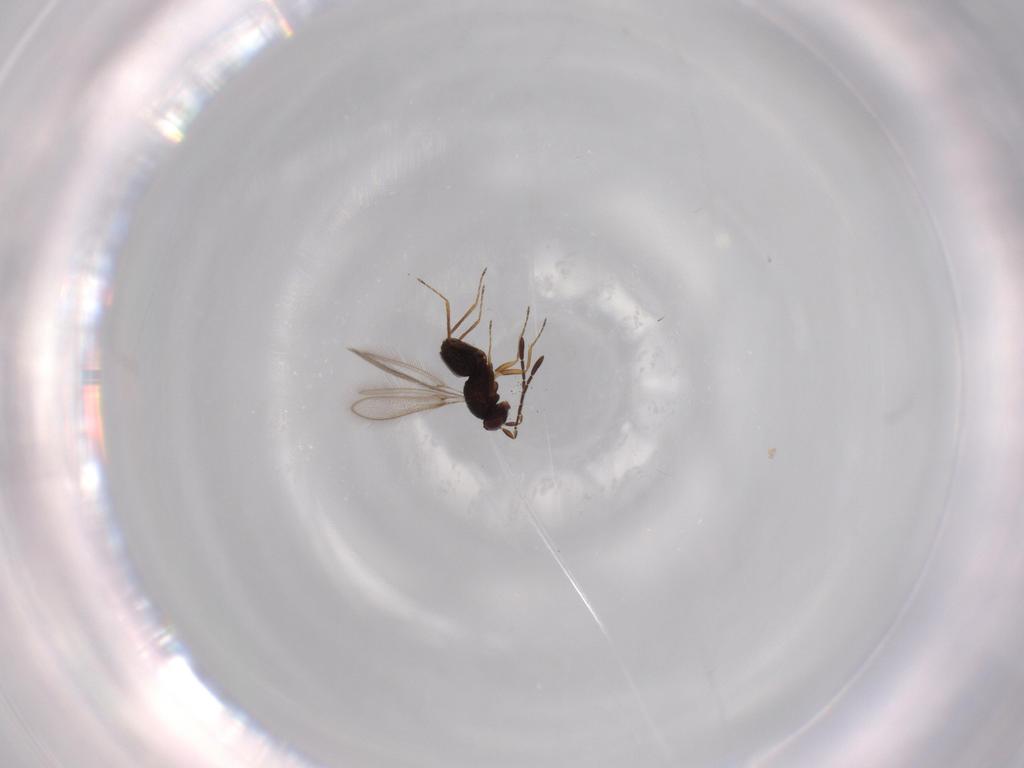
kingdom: Animalia
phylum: Arthropoda
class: Insecta
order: Hymenoptera
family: Platygastridae
